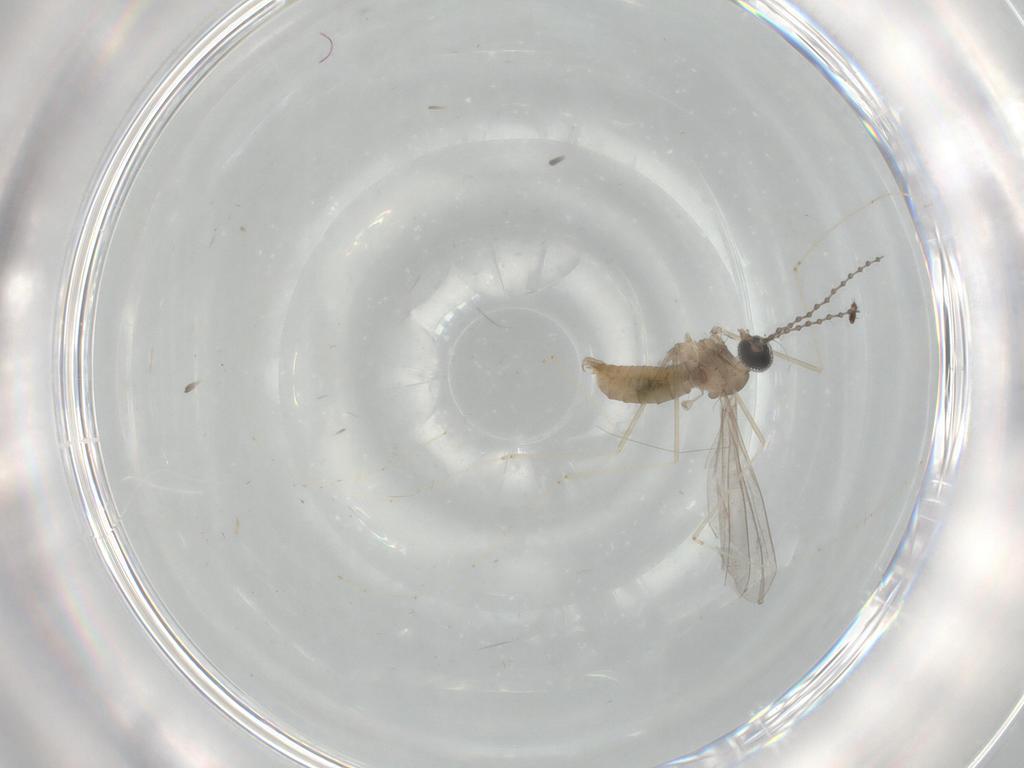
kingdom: Animalia
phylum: Arthropoda
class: Insecta
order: Diptera
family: Cecidomyiidae
